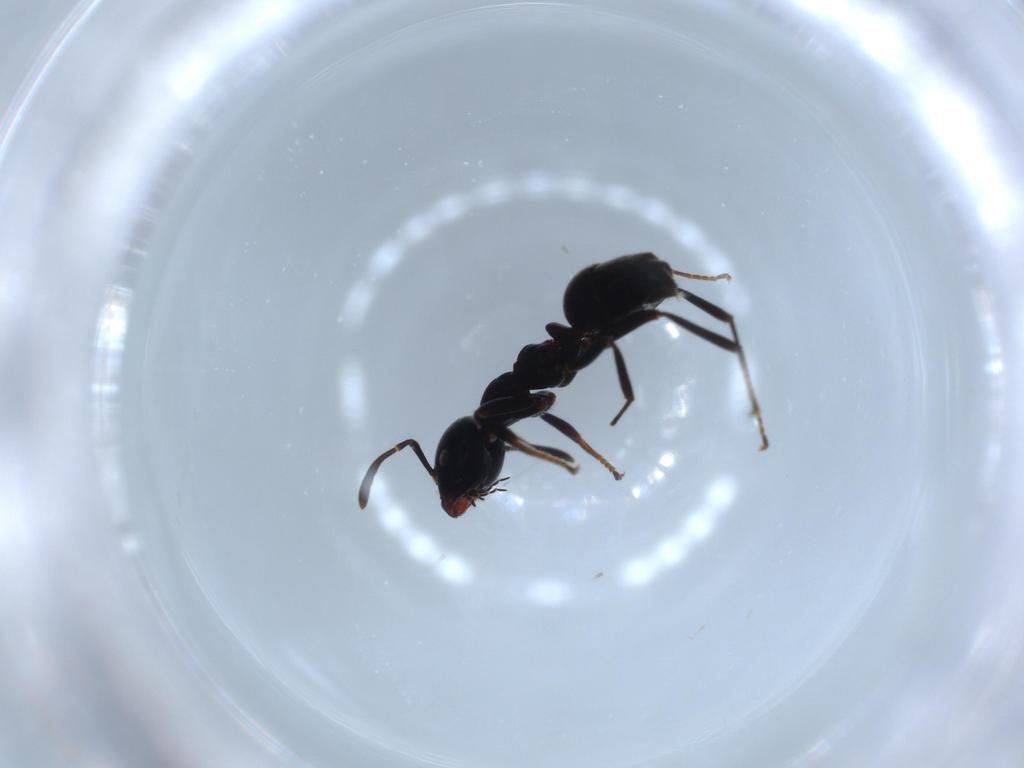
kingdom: Animalia
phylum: Arthropoda
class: Insecta
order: Hymenoptera
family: Formicidae
